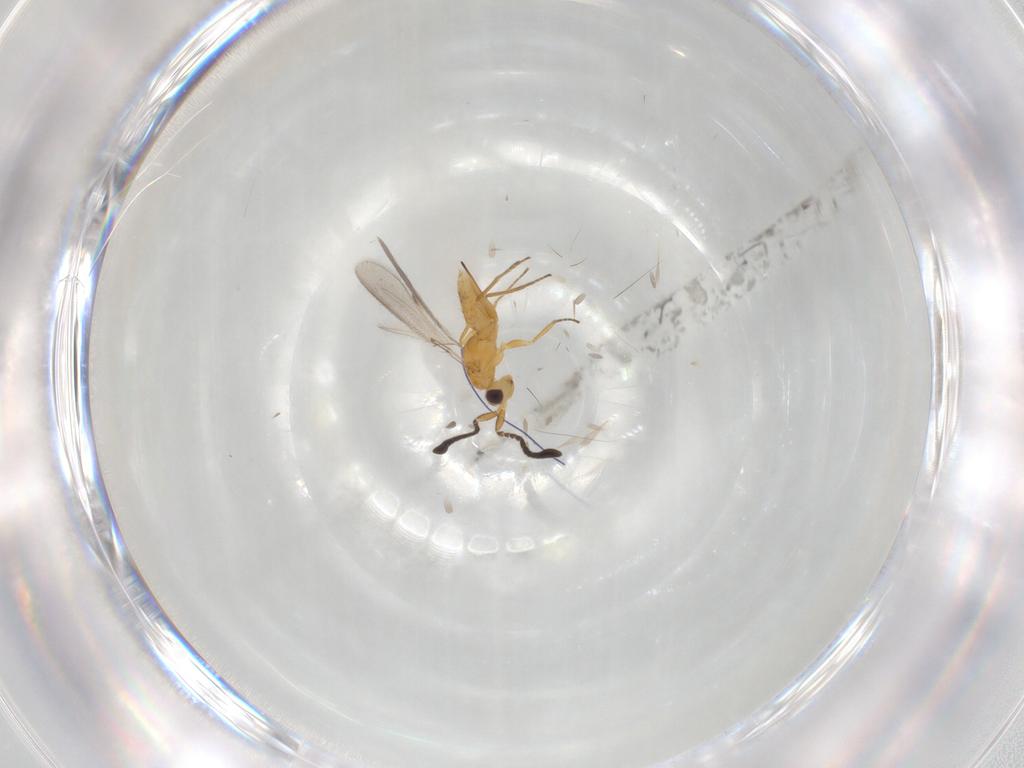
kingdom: Animalia
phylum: Arthropoda
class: Insecta
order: Hymenoptera
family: Mymaridae
